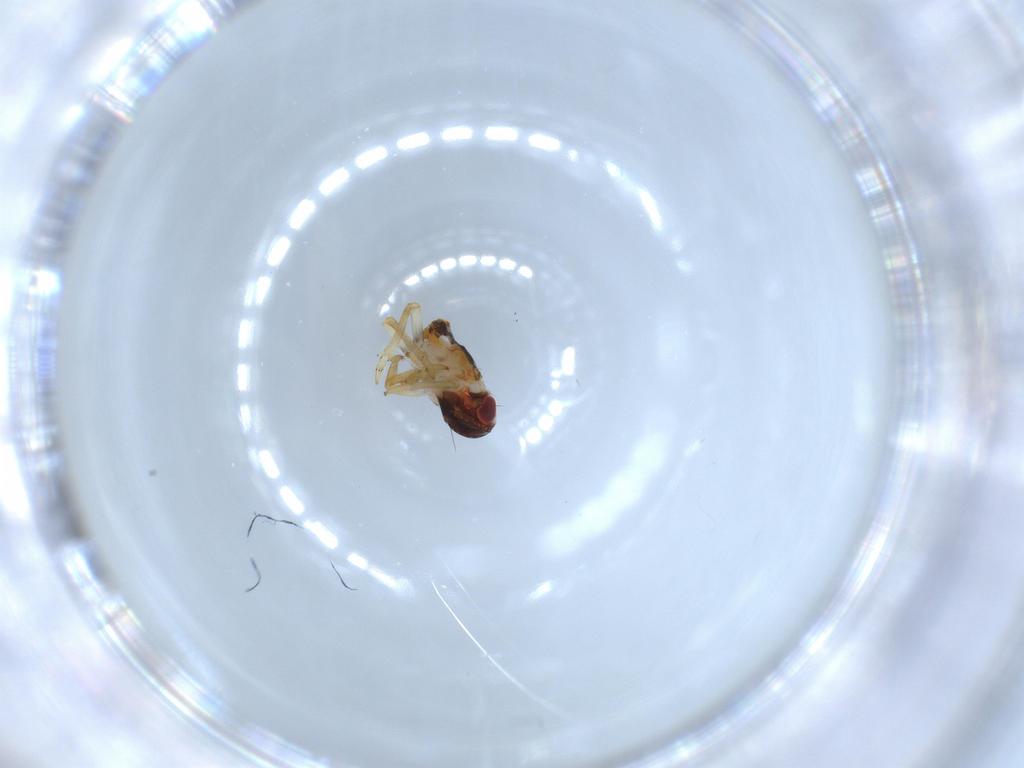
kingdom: Animalia
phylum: Arthropoda
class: Insecta
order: Hemiptera
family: Issidae
